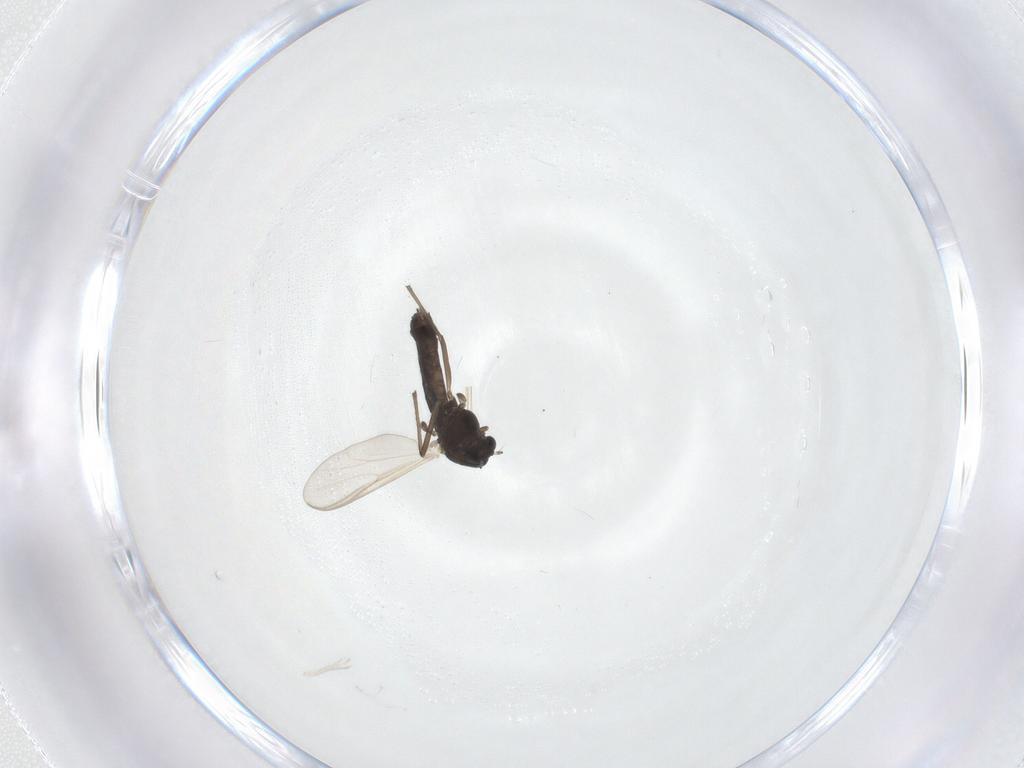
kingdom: Animalia
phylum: Arthropoda
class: Insecta
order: Diptera
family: Chironomidae
